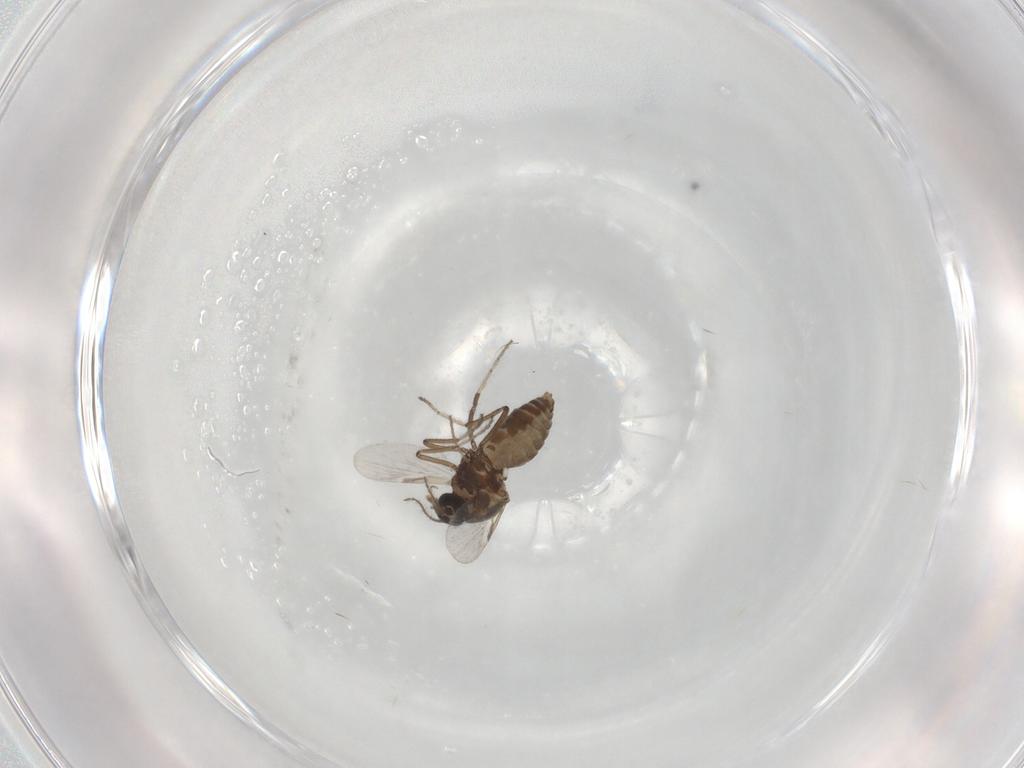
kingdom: Animalia
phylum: Arthropoda
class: Insecta
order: Diptera
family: Ceratopogonidae
